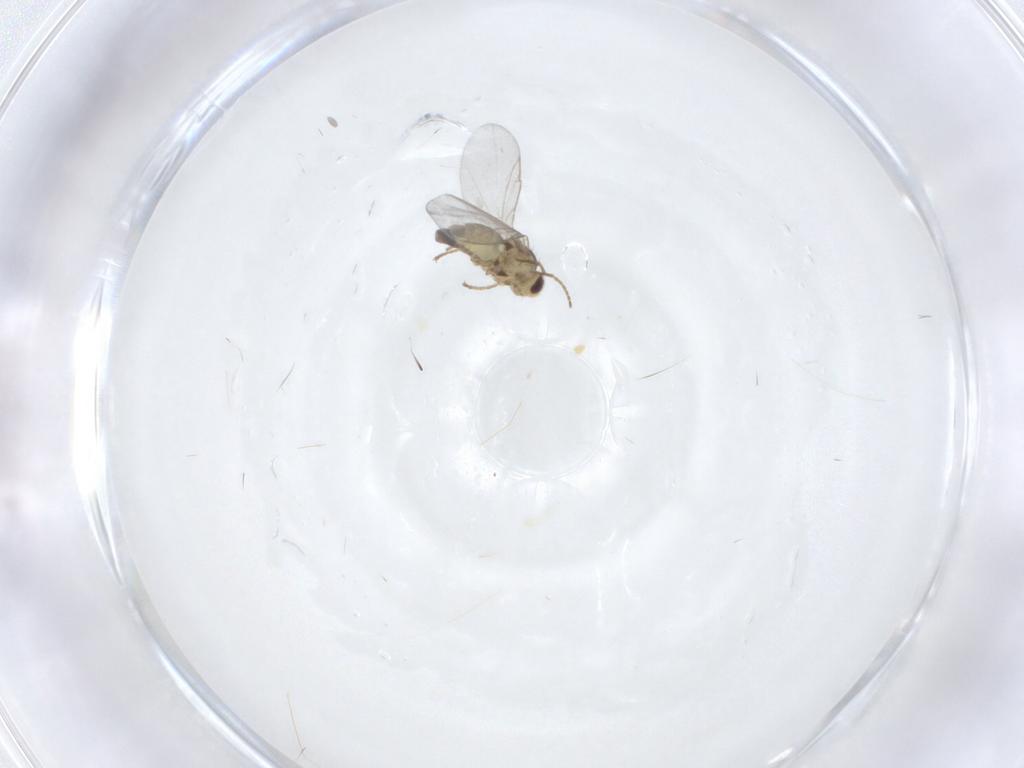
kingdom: Animalia
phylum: Arthropoda
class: Insecta
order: Diptera
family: Agromyzidae
